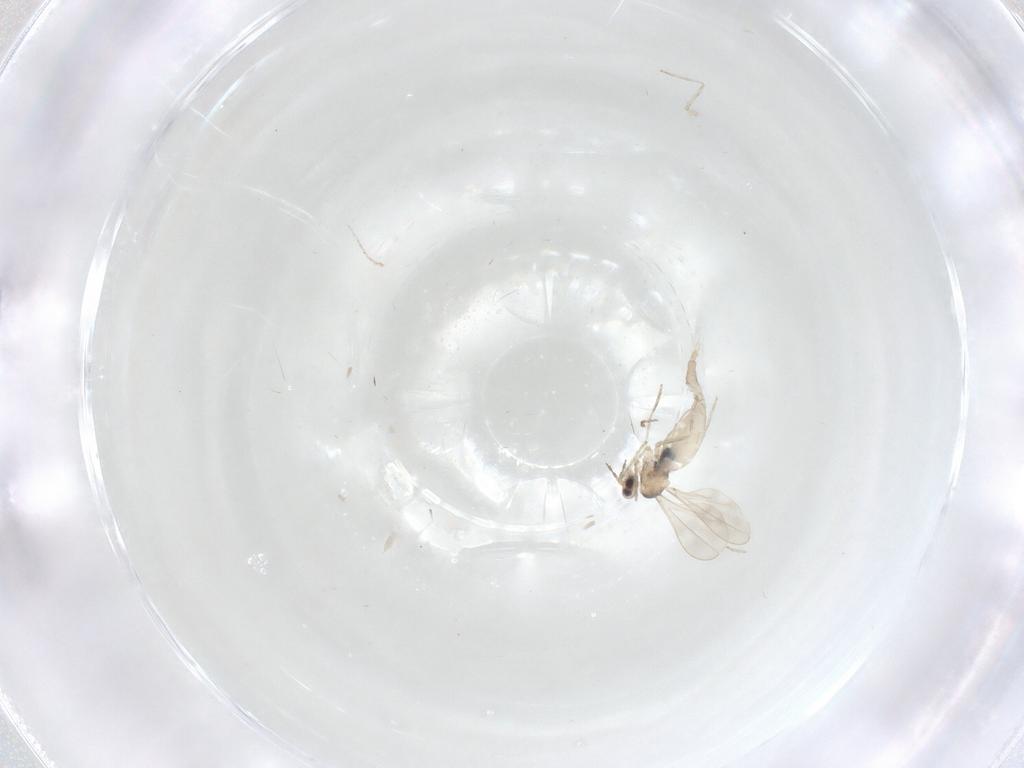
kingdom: Animalia
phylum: Arthropoda
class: Insecta
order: Diptera
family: Cecidomyiidae
